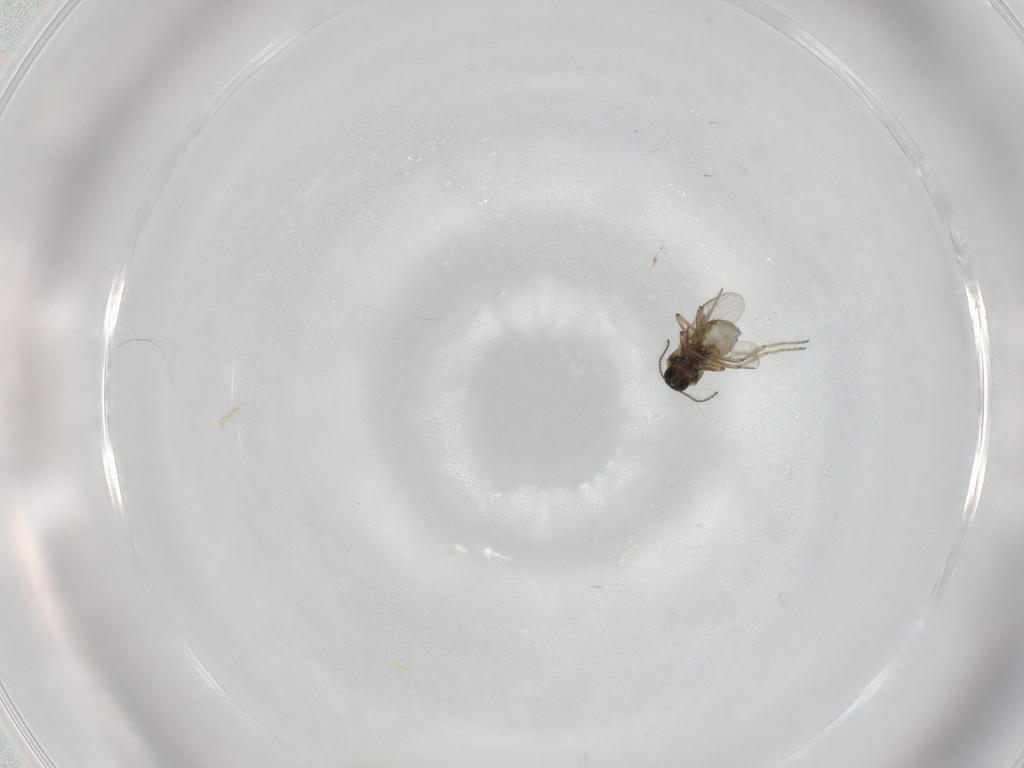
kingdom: Animalia
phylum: Arthropoda
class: Insecta
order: Diptera
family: Ceratopogonidae
